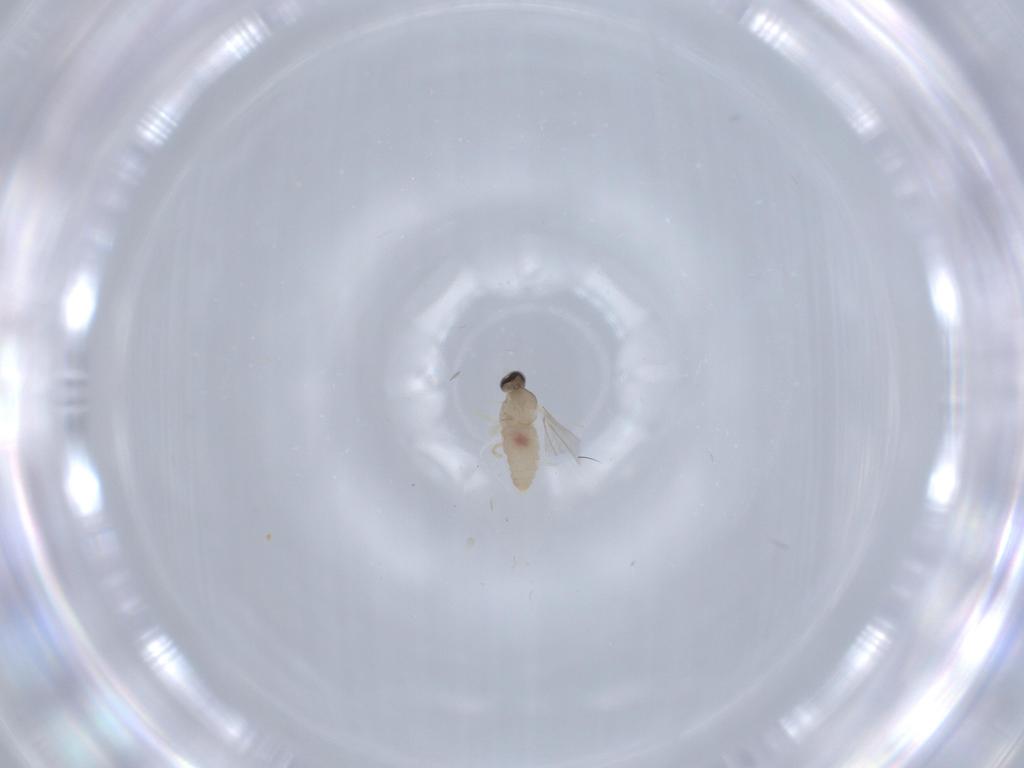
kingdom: Animalia
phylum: Arthropoda
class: Insecta
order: Diptera
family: Cecidomyiidae
